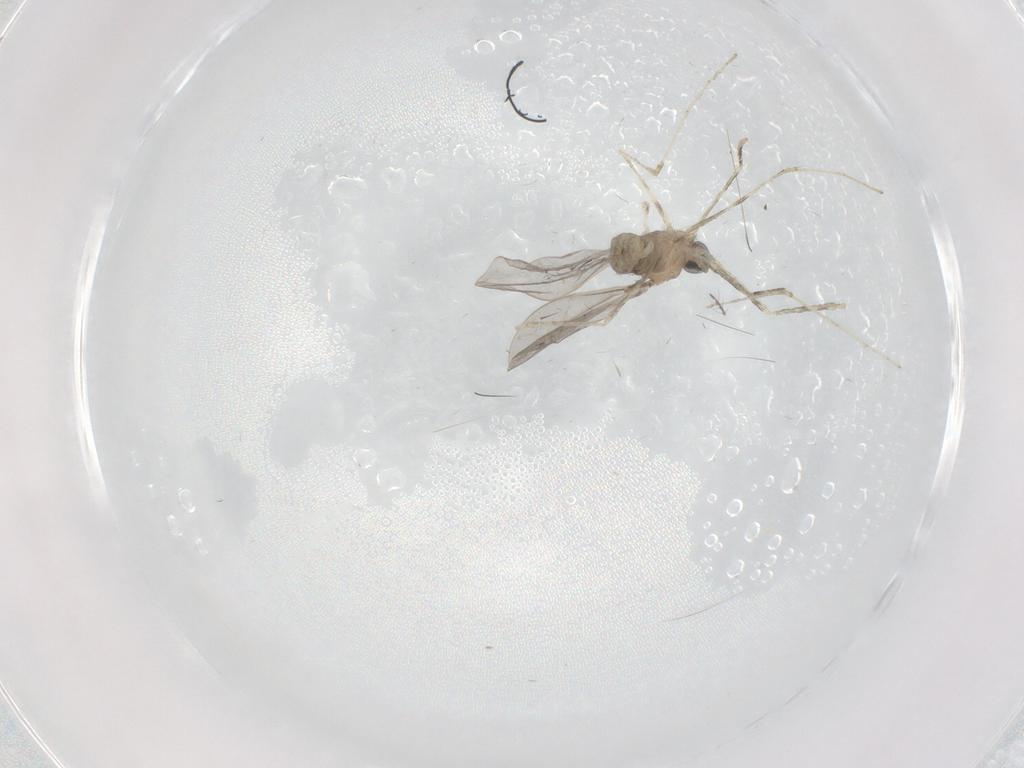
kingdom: Animalia
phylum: Arthropoda
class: Insecta
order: Diptera
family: Cecidomyiidae
